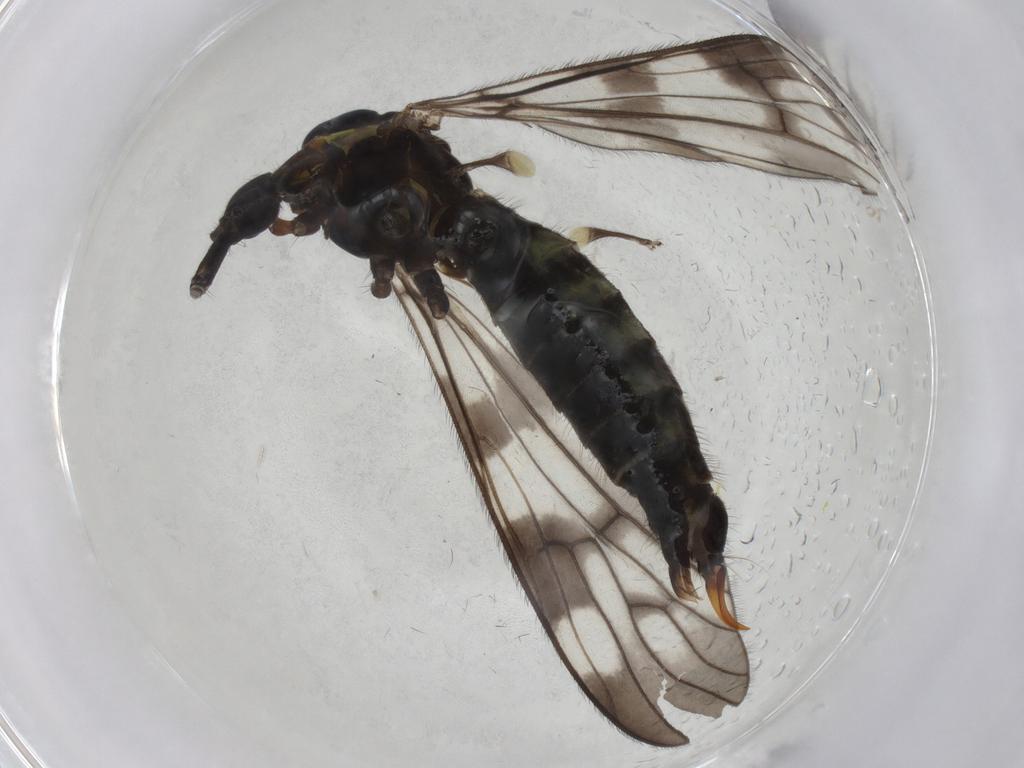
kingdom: Animalia
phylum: Arthropoda
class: Insecta
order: Diptera
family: Limoniidae
